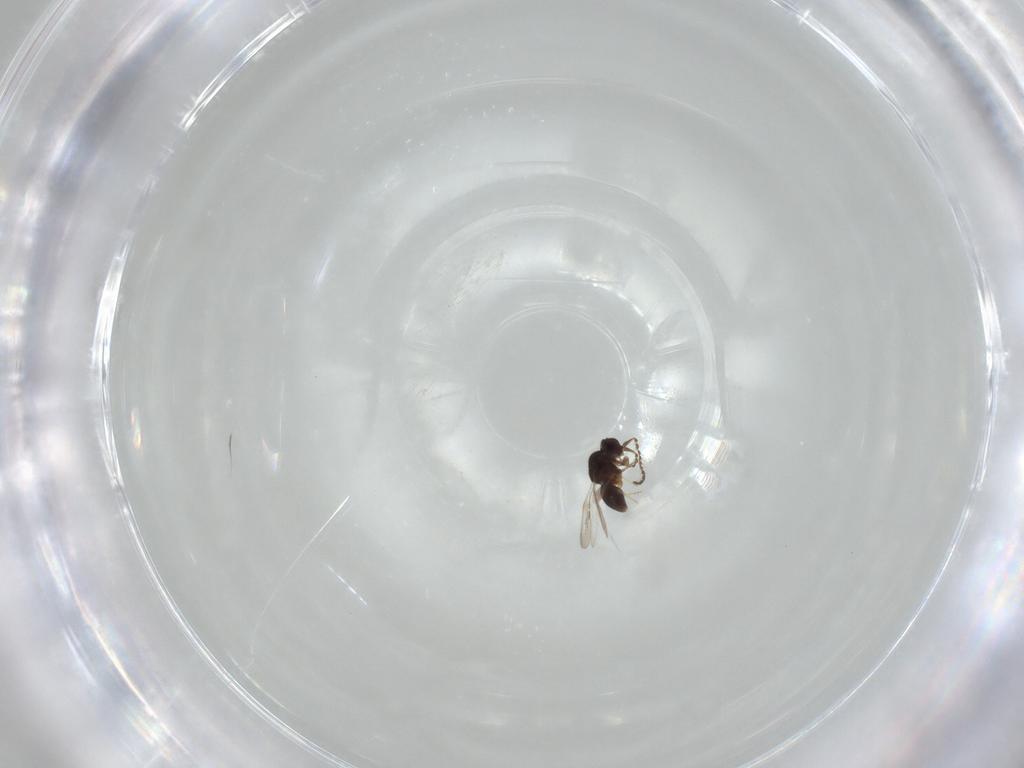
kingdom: Animalia
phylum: Arthropoda
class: Insecta
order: Diptera
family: Chironomidae
